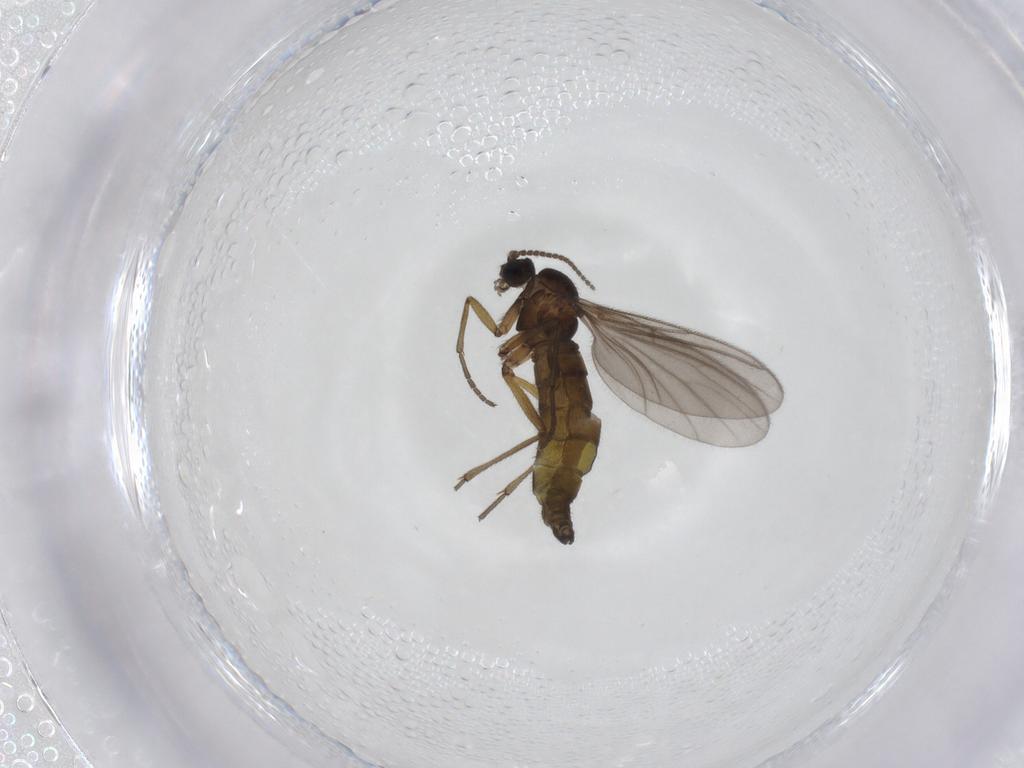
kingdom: Animalia
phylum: Arthropoda
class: Insecta
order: Diptera
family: Sciaridae
